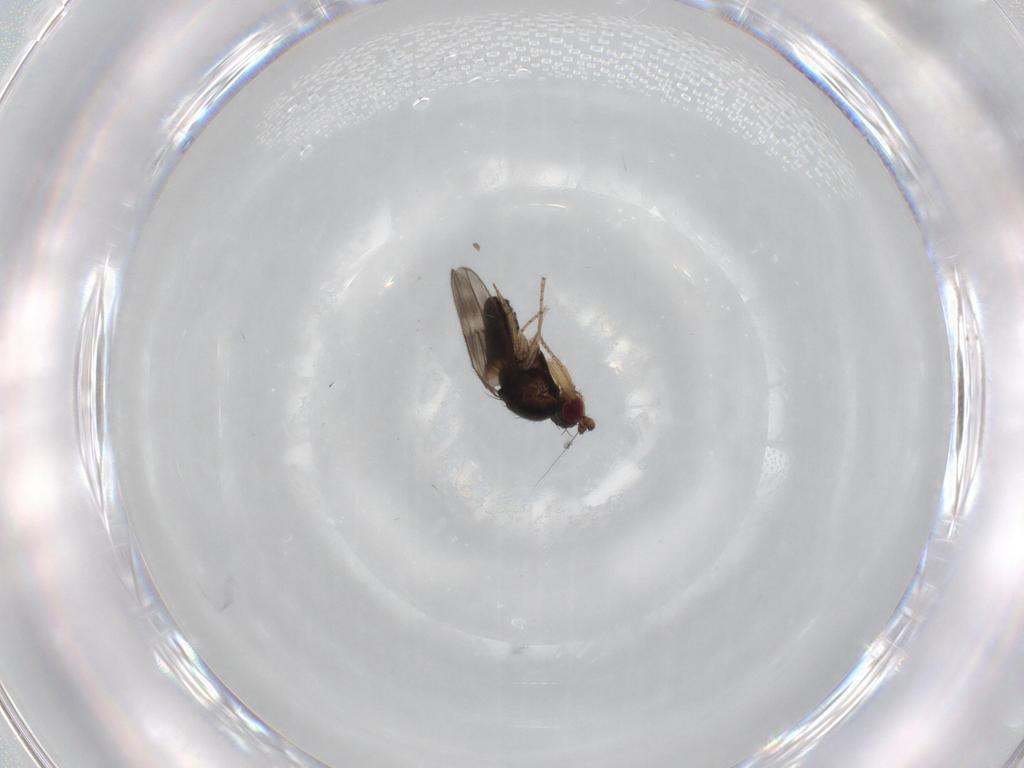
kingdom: Animalia
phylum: Arthropoda
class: Insecta
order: Diptera
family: Sphaeroceridae
